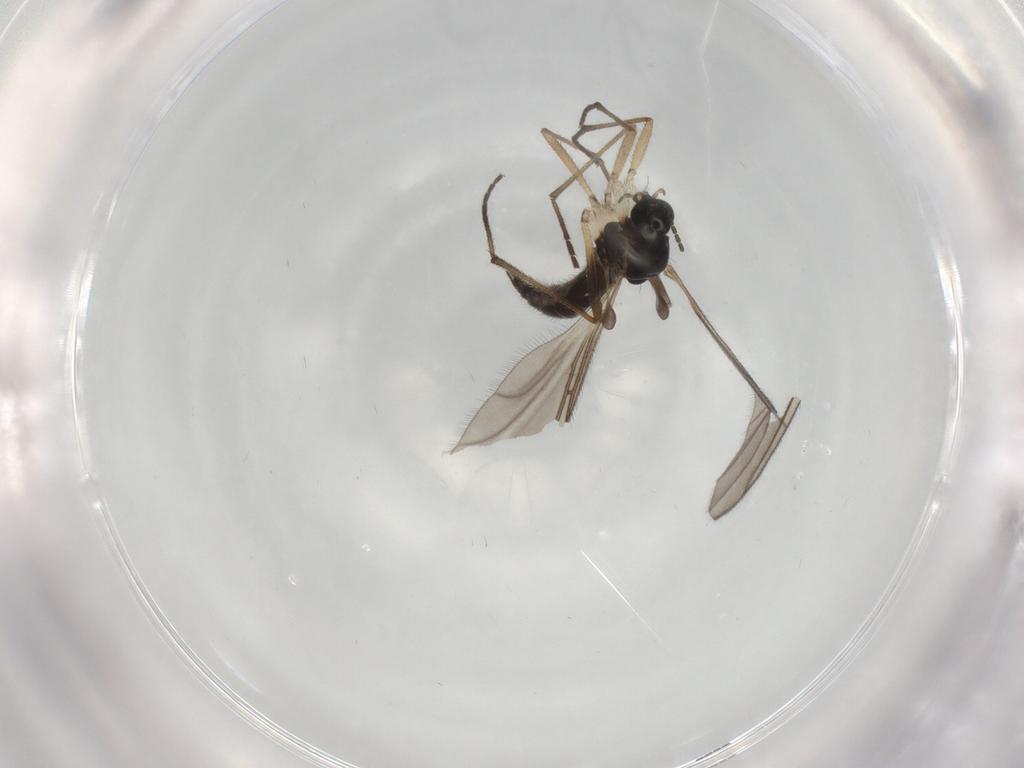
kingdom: Animalia
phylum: Arthropoda
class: Insecta
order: Diptera
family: Sciaridae
